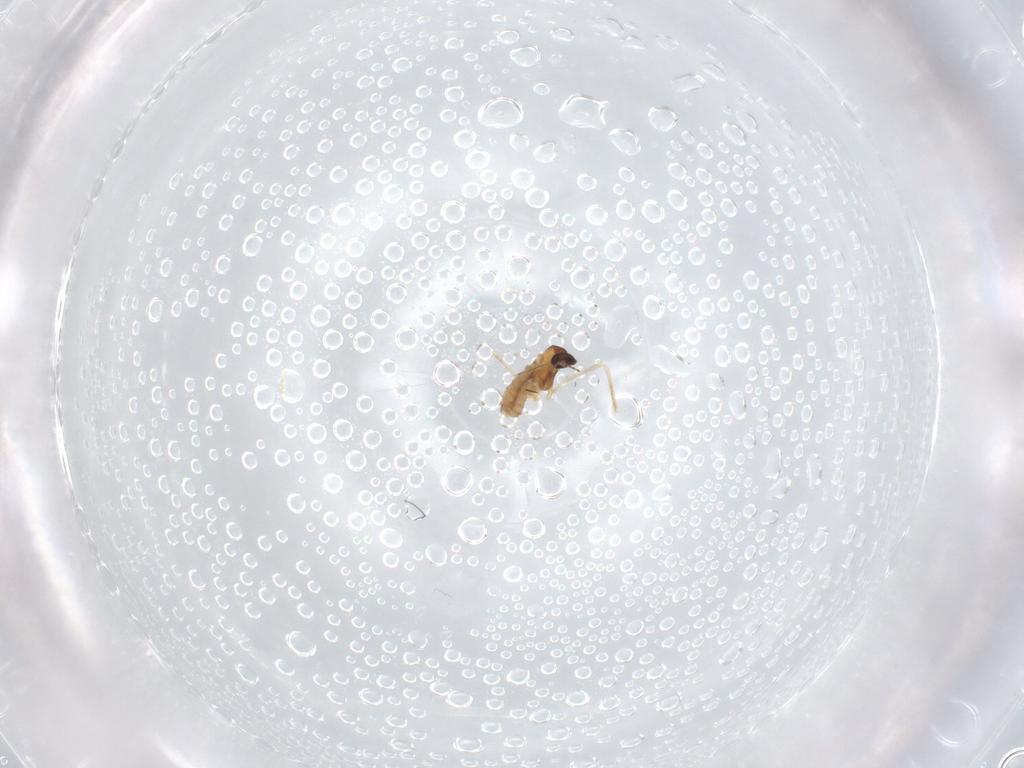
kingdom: Animalia
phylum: Arthropoda
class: Insecta
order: Diptera
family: Cecidomyiidae
